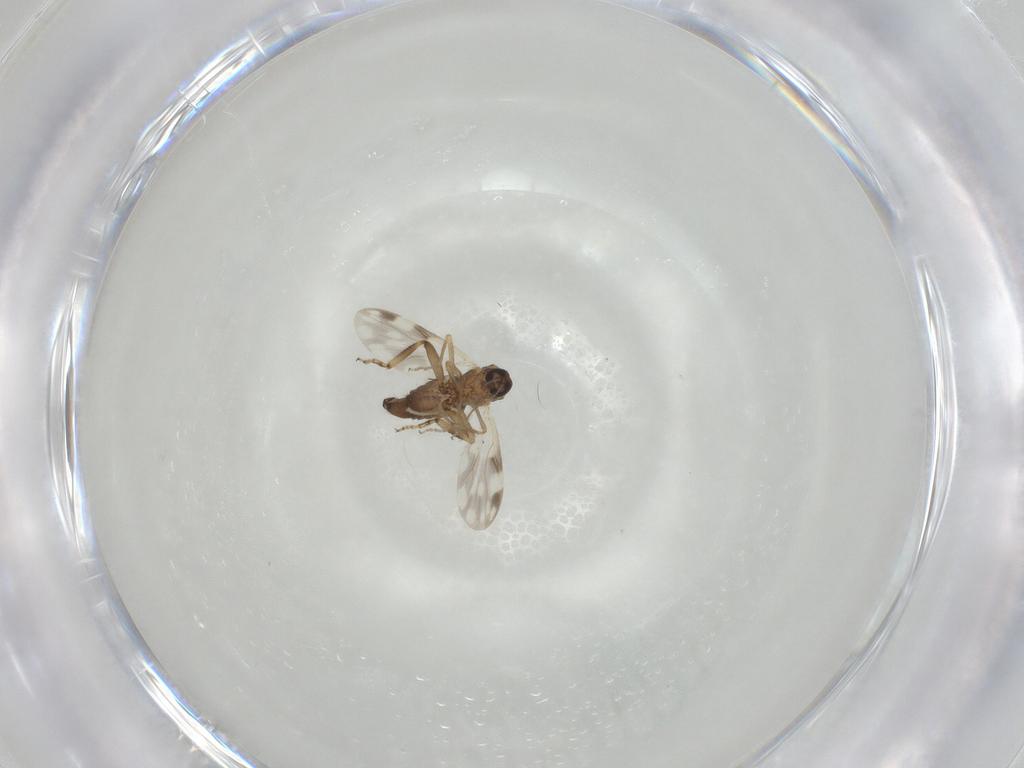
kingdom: Animalia
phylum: Arthropoda
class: Insecta
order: Diptera
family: Ceratopogonidae
